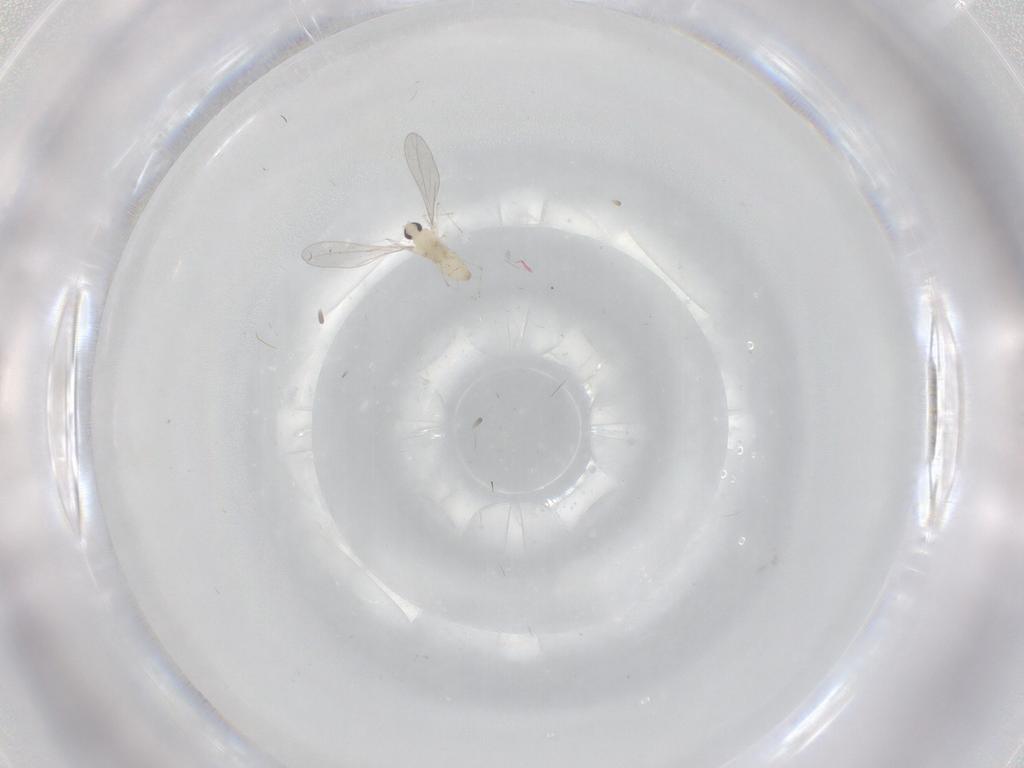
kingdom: Animalia
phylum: Arthropoda
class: Insecta
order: Diptera
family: Cecidomyiidae
